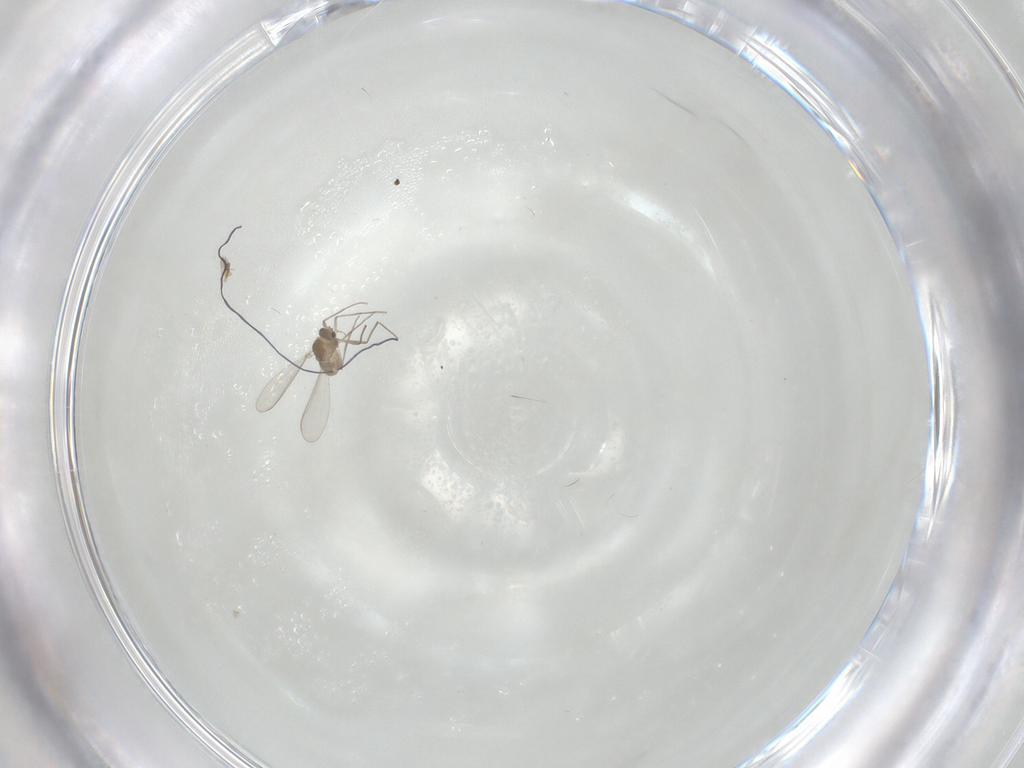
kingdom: Animalia
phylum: Arthropoda
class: Insecta
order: Diptera
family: Chironomidae
